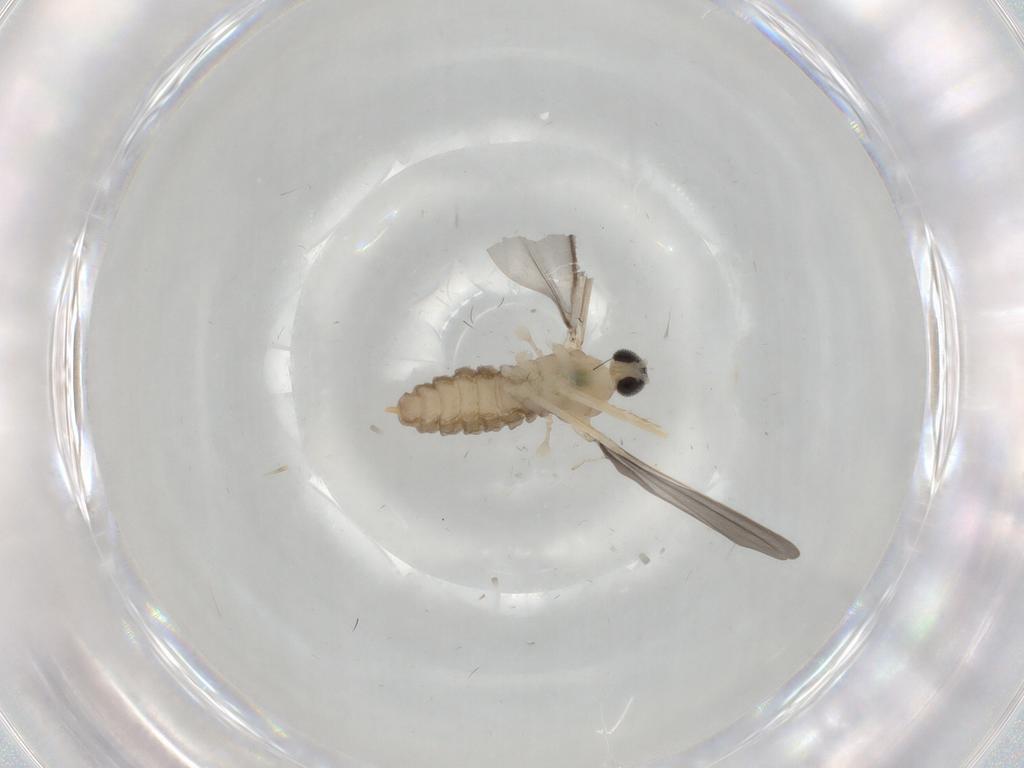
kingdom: Animalia
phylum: Arthropoda
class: Insecta
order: Diptera
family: Cecidomyiidae
